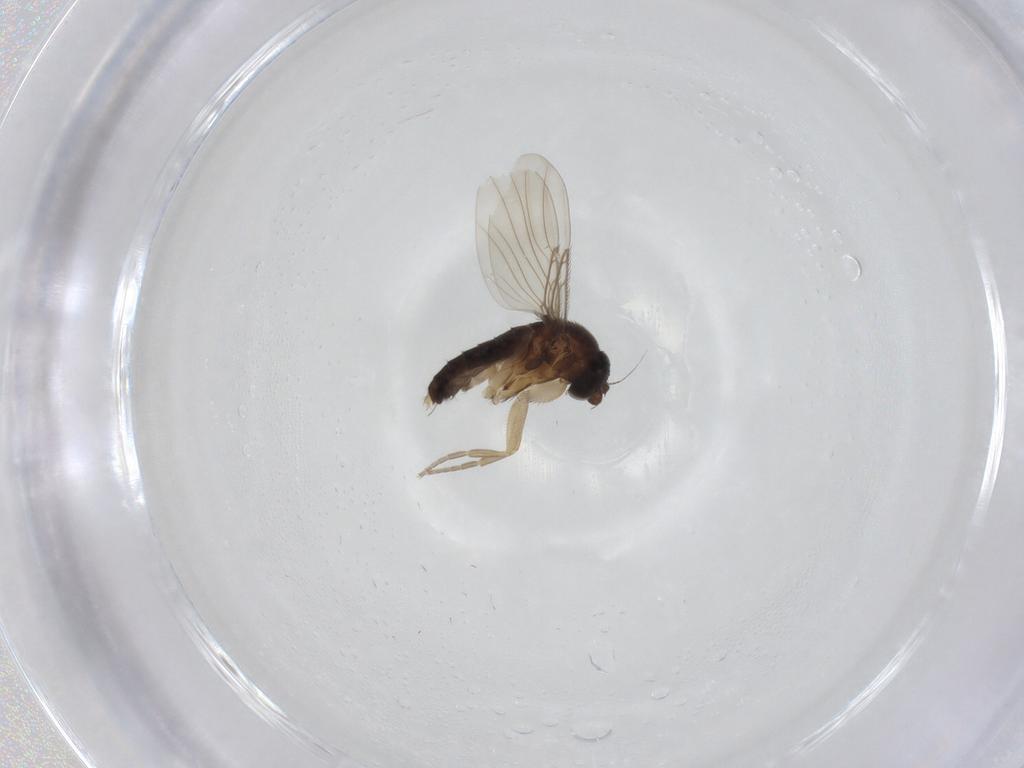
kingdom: Animalia
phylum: Arthropoda
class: Insecta
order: Diptera
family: Phoridae
